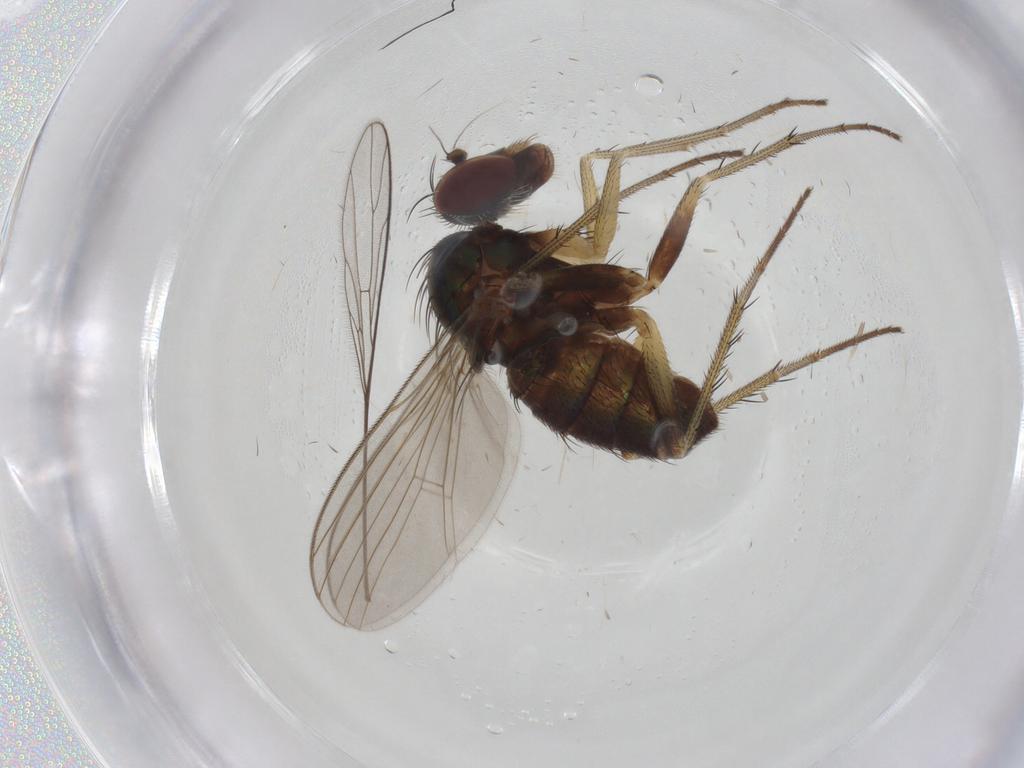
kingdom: Animalia
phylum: Arthropoda
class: Insecta
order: Diptera
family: Dolichopodidae
